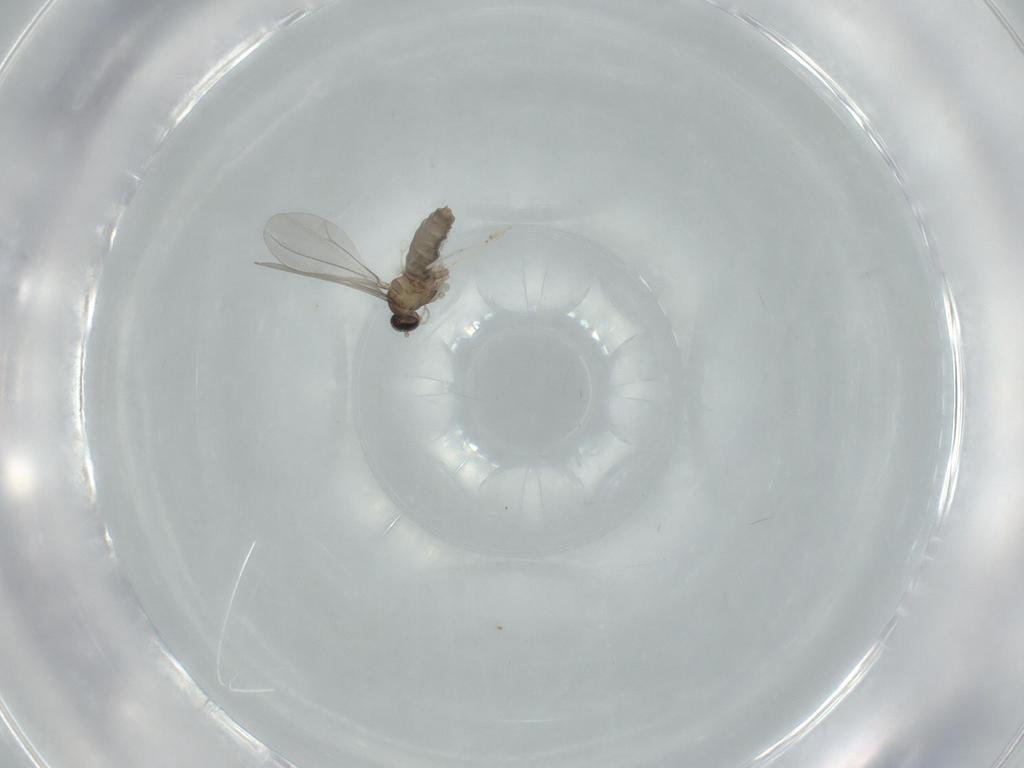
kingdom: Animalia
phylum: Arthropoda
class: Insecta
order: Diptera
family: Cecidomyiidae
